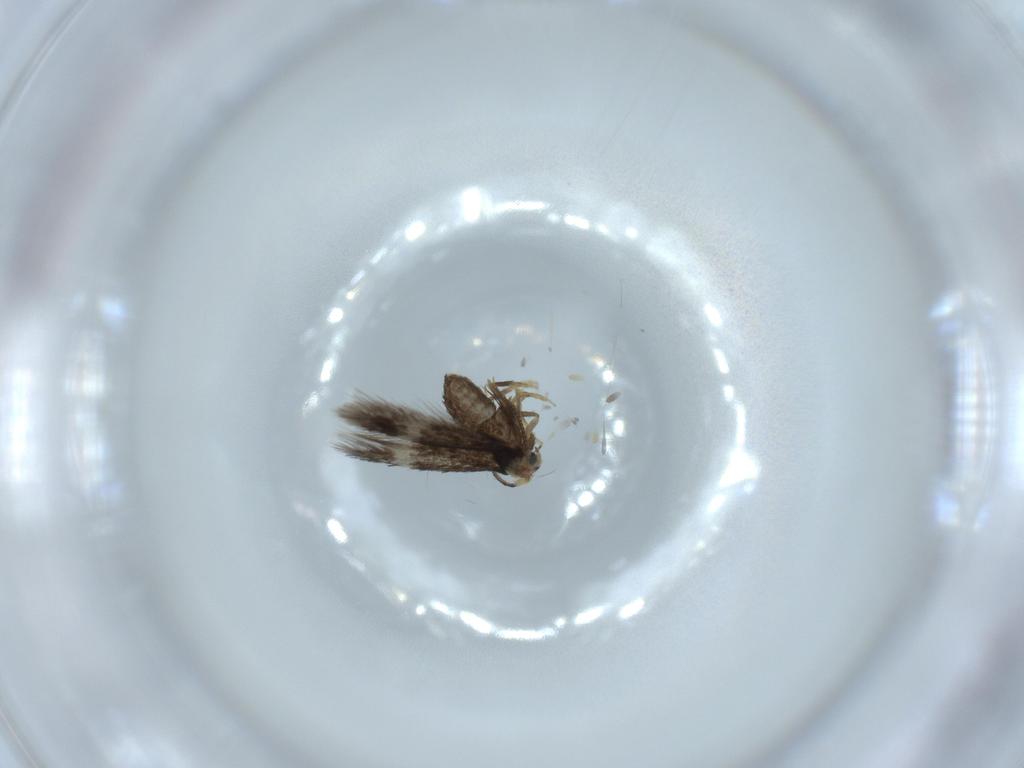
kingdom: Animalia
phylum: Arthropoda
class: Insecta
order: Lepidoptera
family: Nepticulidae
